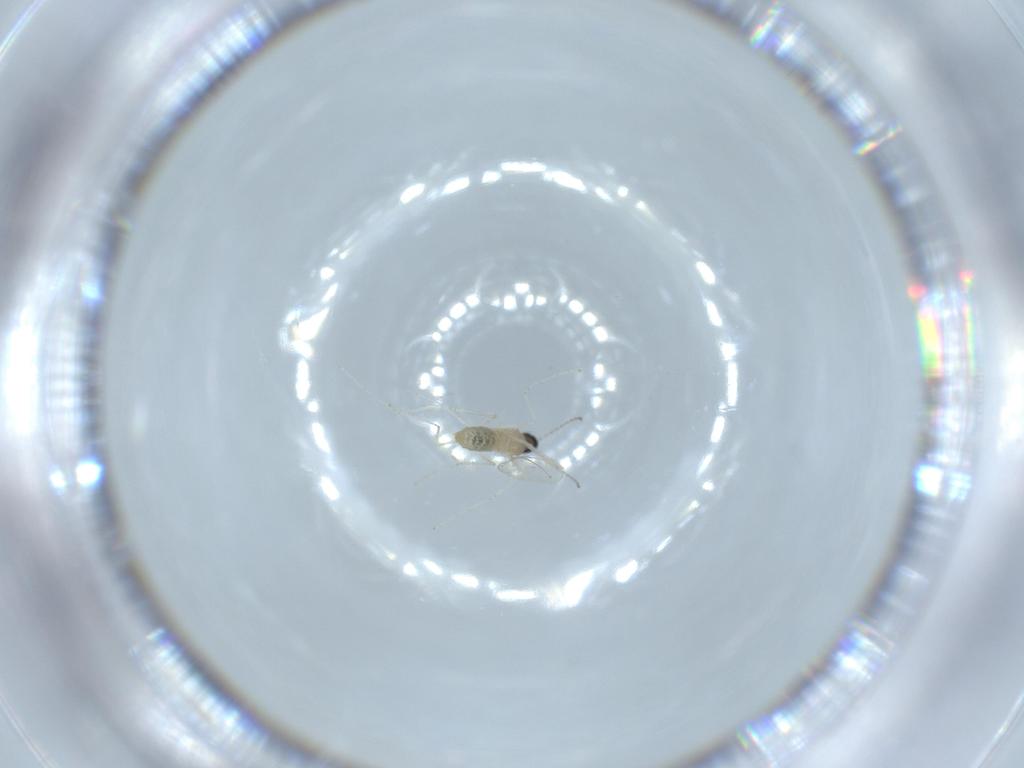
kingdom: Animalia
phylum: Arthropoda
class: Insecta
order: Diptera
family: Cecidomyiidae
